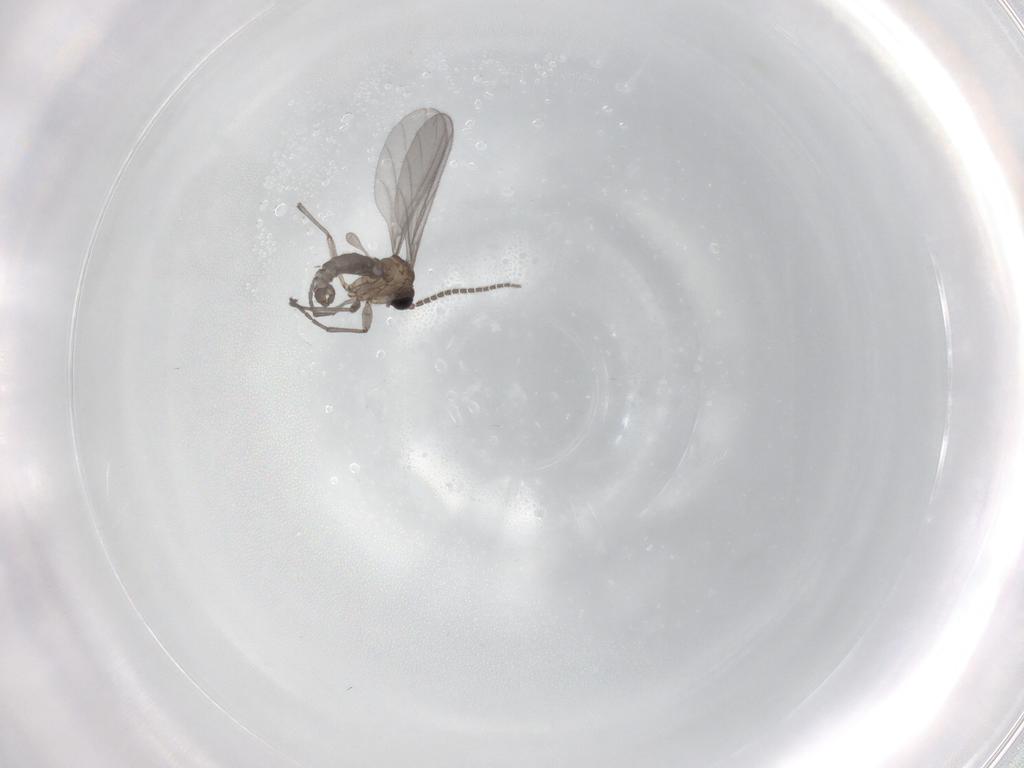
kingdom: Animalia
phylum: Arthropoda
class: Insecta
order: Diptera
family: Sciaridae
